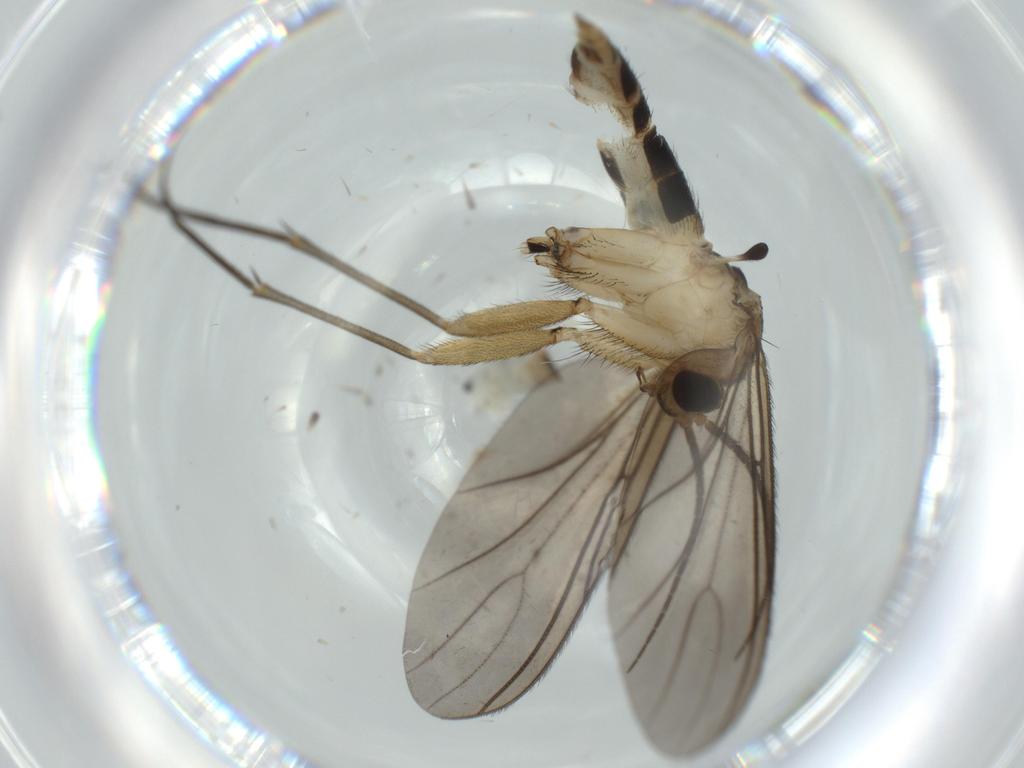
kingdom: Animalia
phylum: Arthropoda
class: Insecta
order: Diptera
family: Sciaridae
